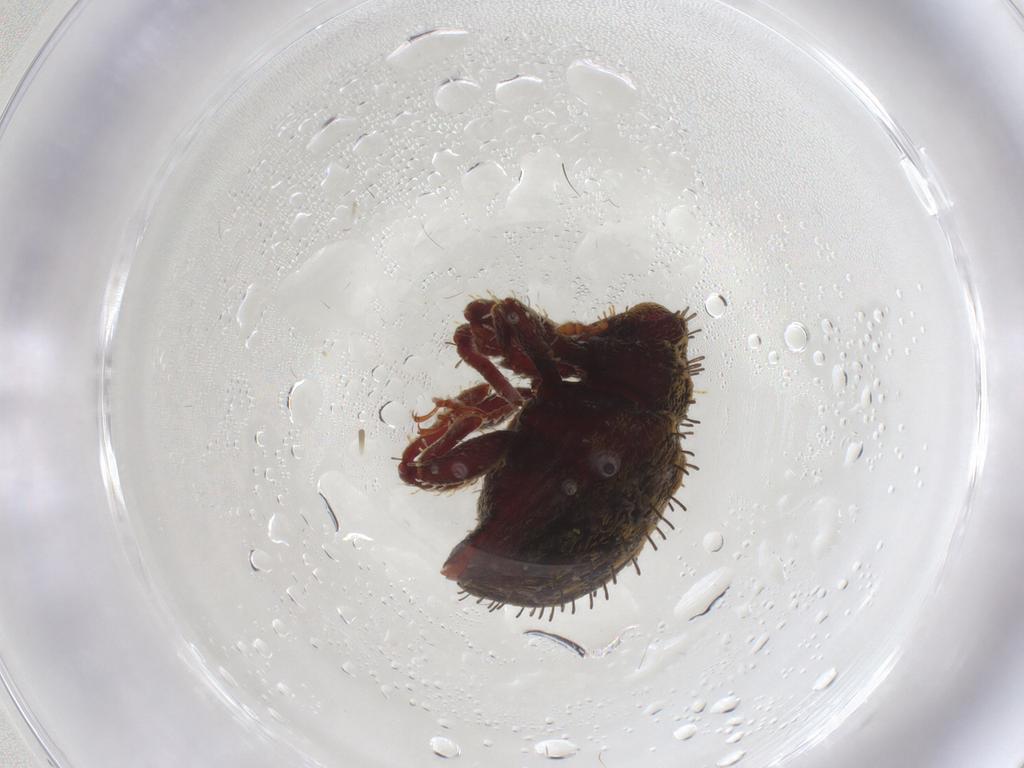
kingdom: Animalia
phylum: Arthropoda
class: Insecta
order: Coleoptera
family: Curculionidae
